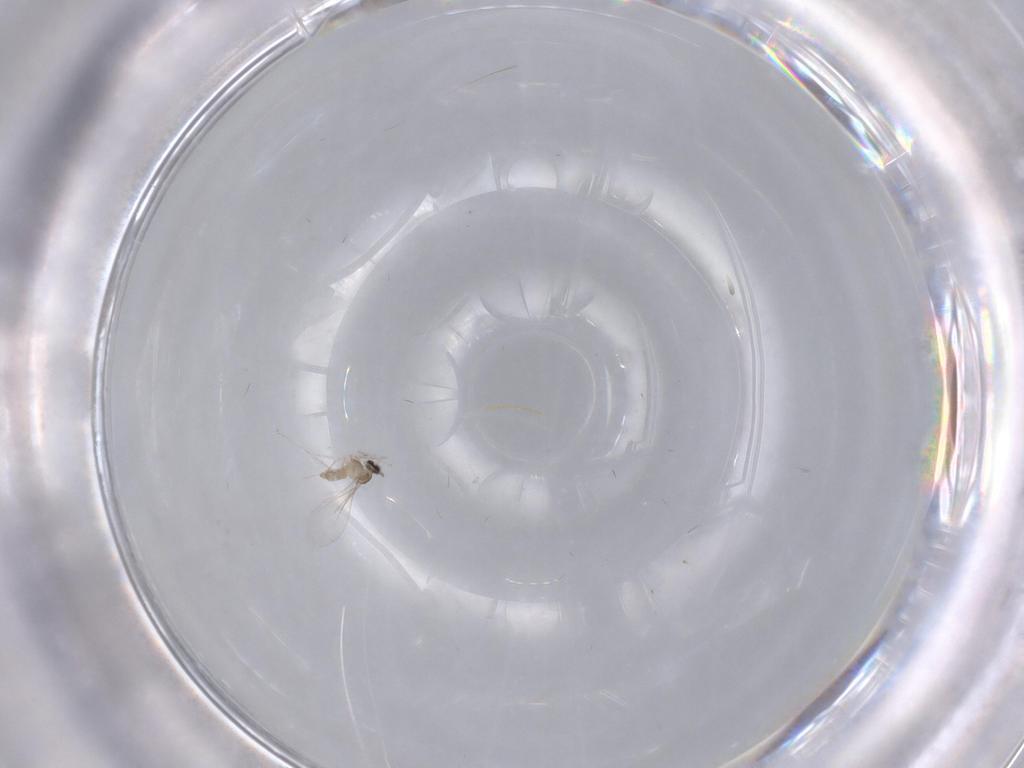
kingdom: Animalia
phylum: Arthropoda
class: Insecta
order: Diptera
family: Cecidomyiidae
